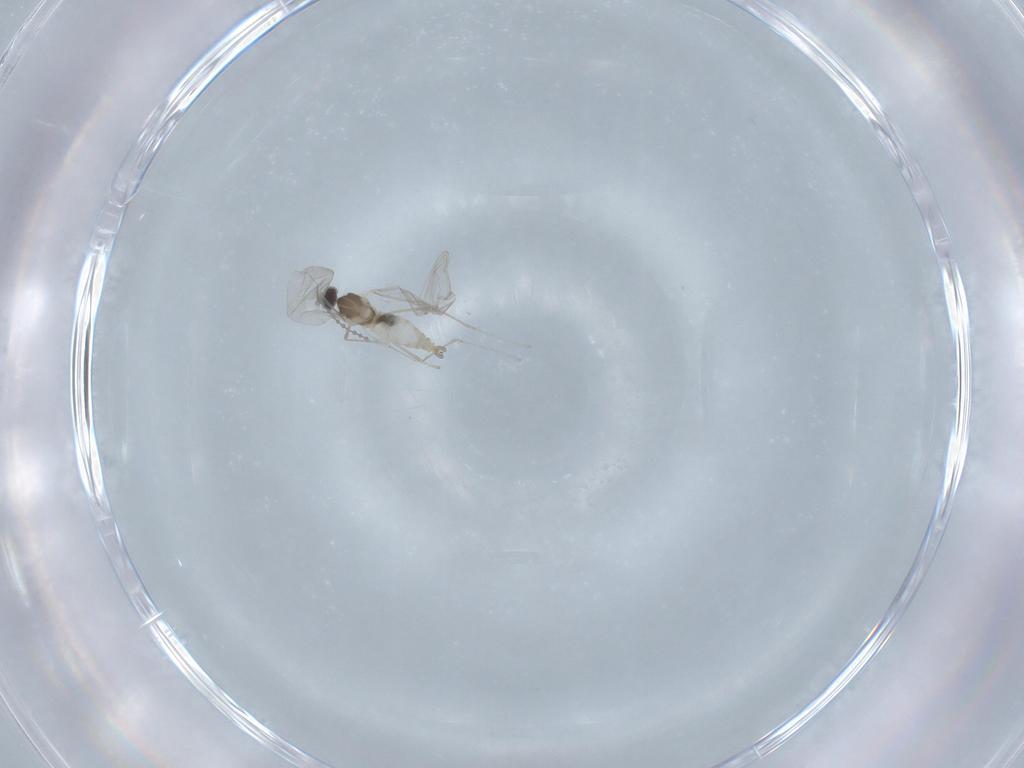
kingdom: Animalia
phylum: Arthropoda
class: Insecta
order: Diptera
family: Cecidomyiidae
